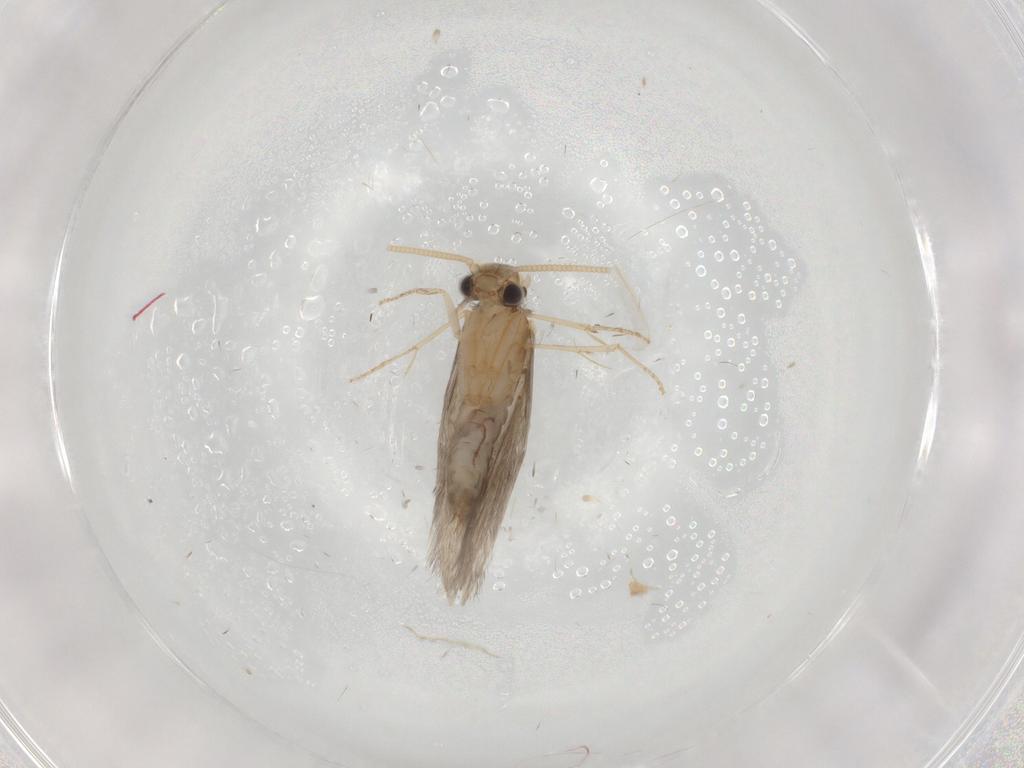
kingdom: Animalia
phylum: Arthropoda
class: Insecta
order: Trichoptera
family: Hydroptilidae
